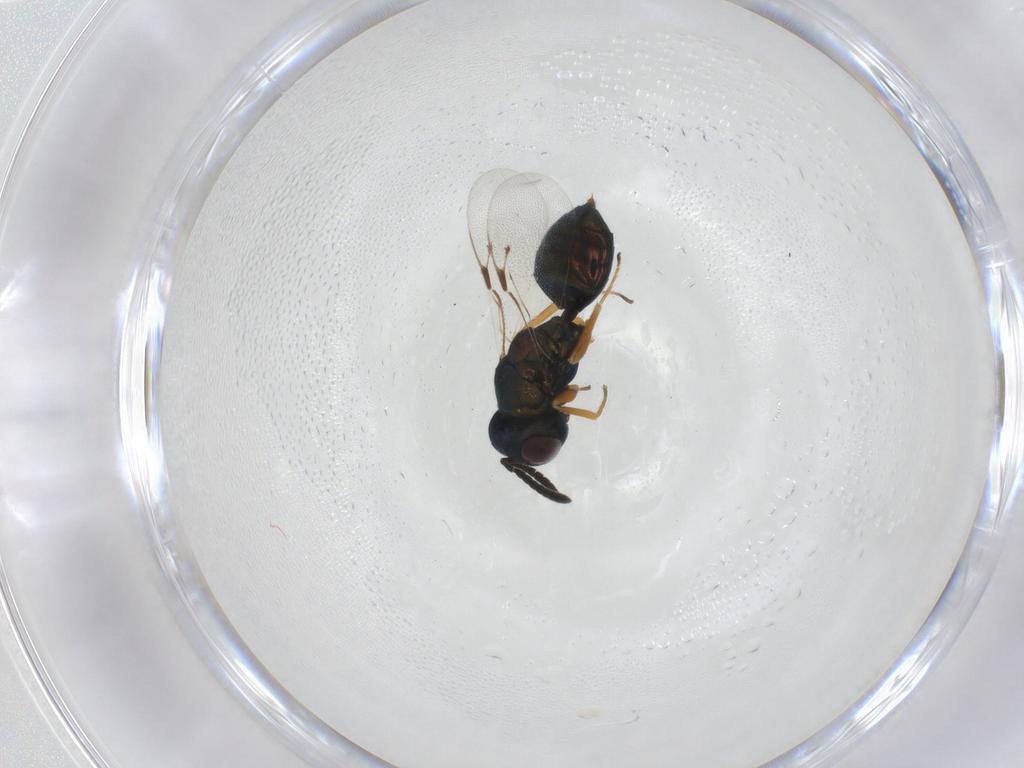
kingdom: Animalia
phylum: Arthropoda
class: Insecta
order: Hymenoptera
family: Pteromalidae
